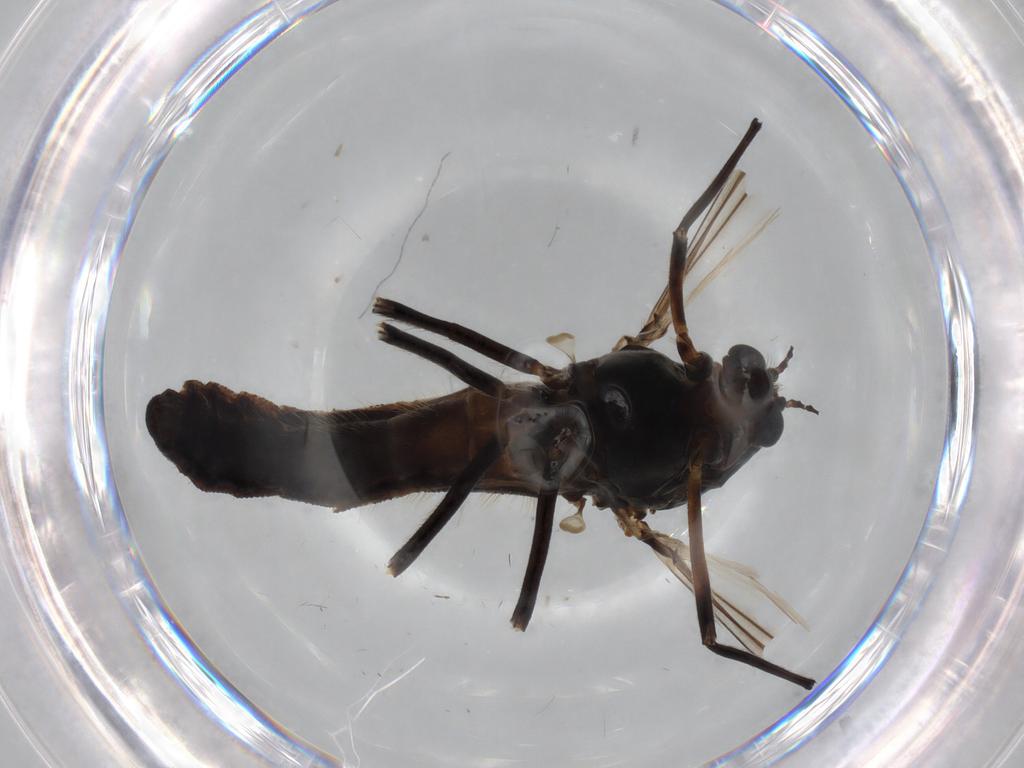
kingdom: Animalia
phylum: Arthropoda
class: Insecta
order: Diptera
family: Chironomidae
